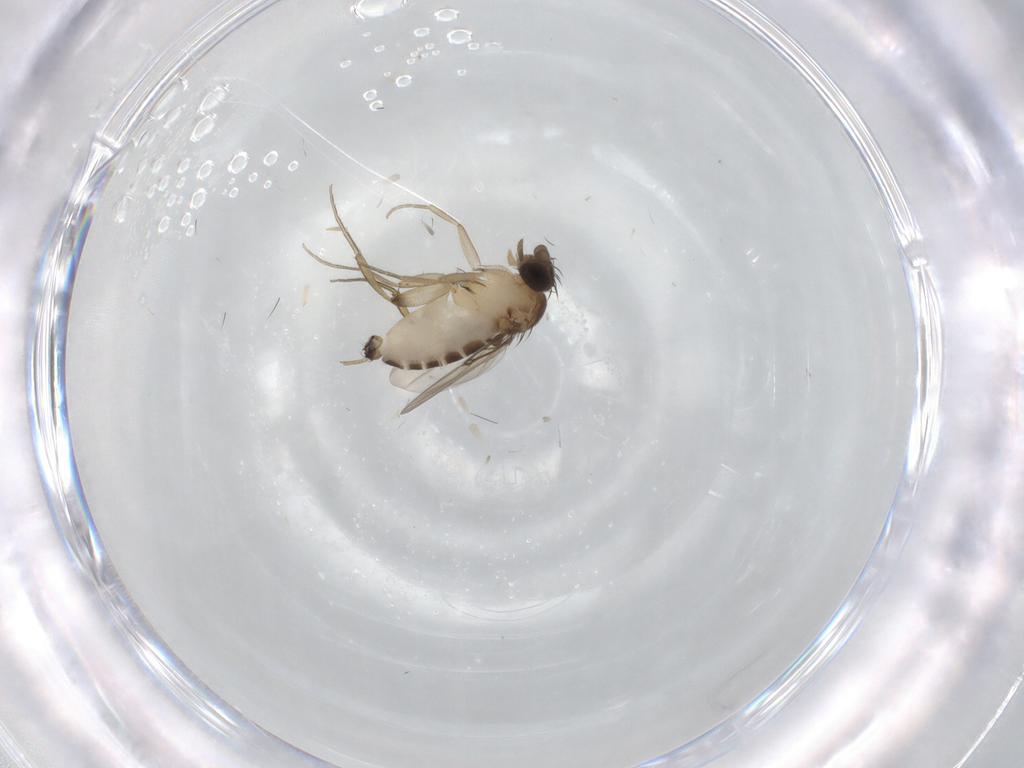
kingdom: Animalia
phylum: Arthropoda
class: Insecta
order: Diptera
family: Phoridae
